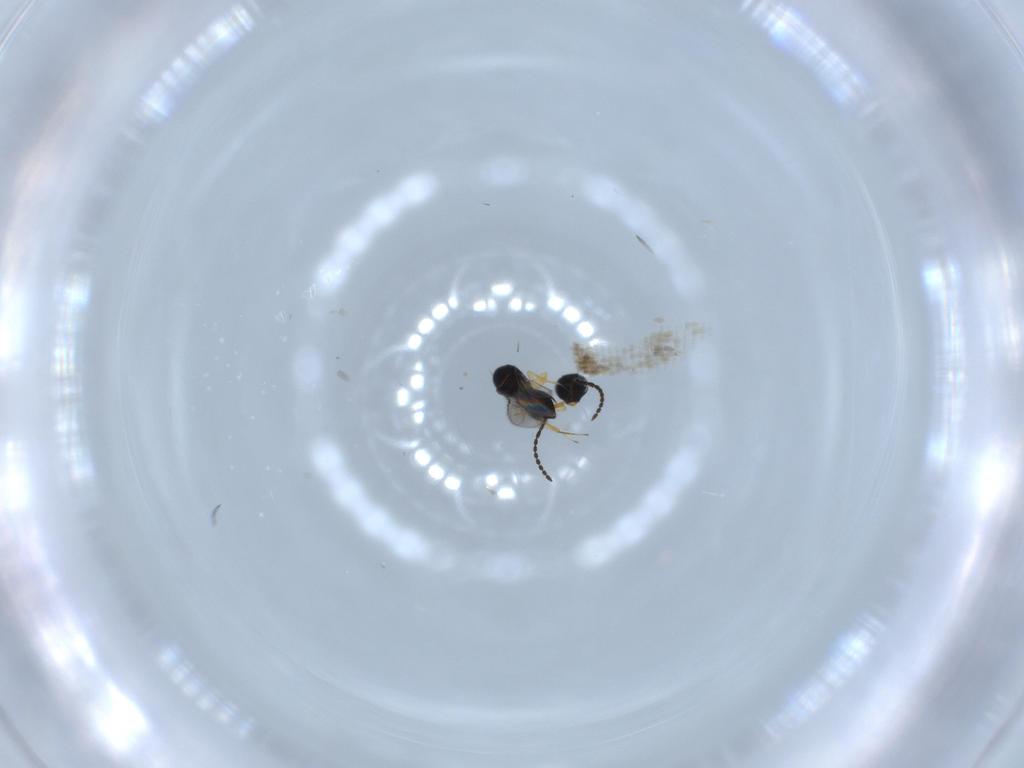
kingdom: Animalia
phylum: Arthropoda
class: Insecta
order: Hymenoptera
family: Scelionidae
